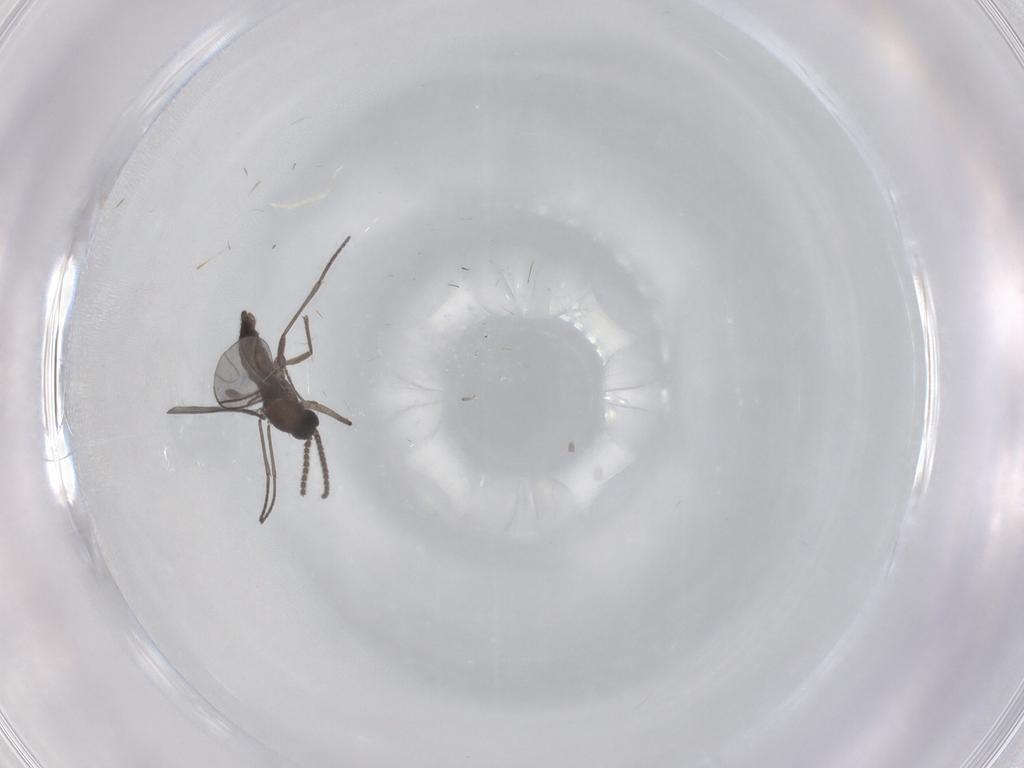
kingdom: Animalia
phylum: Arthropoda
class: Insecta
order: Diptera
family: Chironomidae
